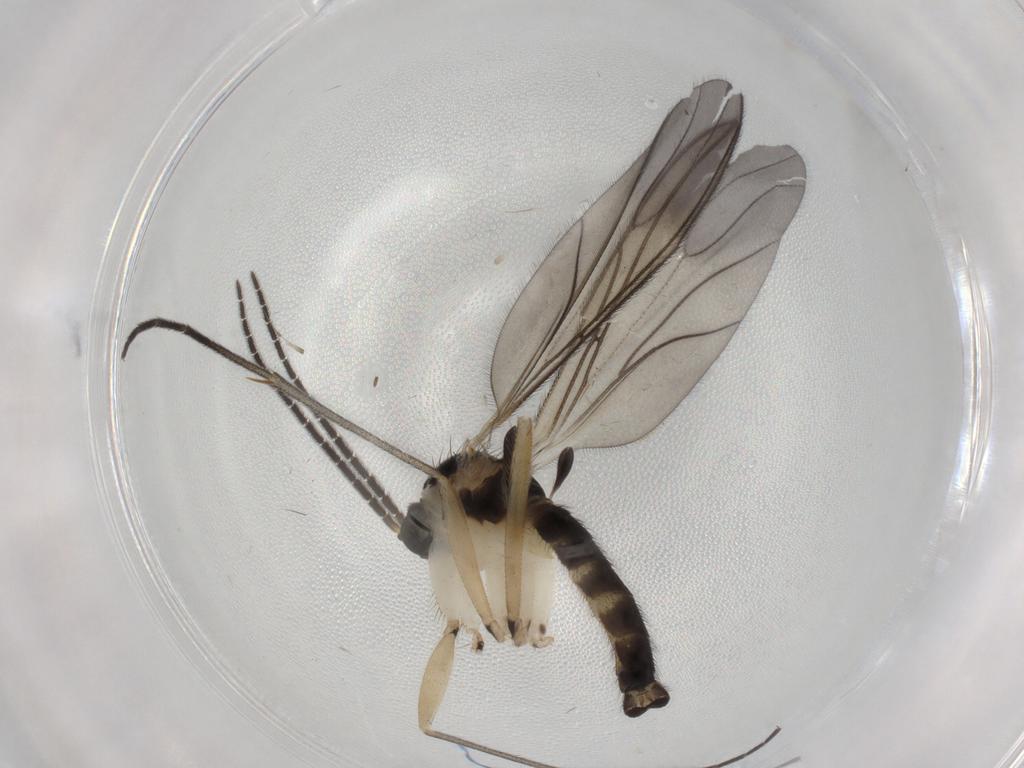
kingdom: Animalia
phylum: Arthropoda
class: Insecta
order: Diptera
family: Sciaridae
